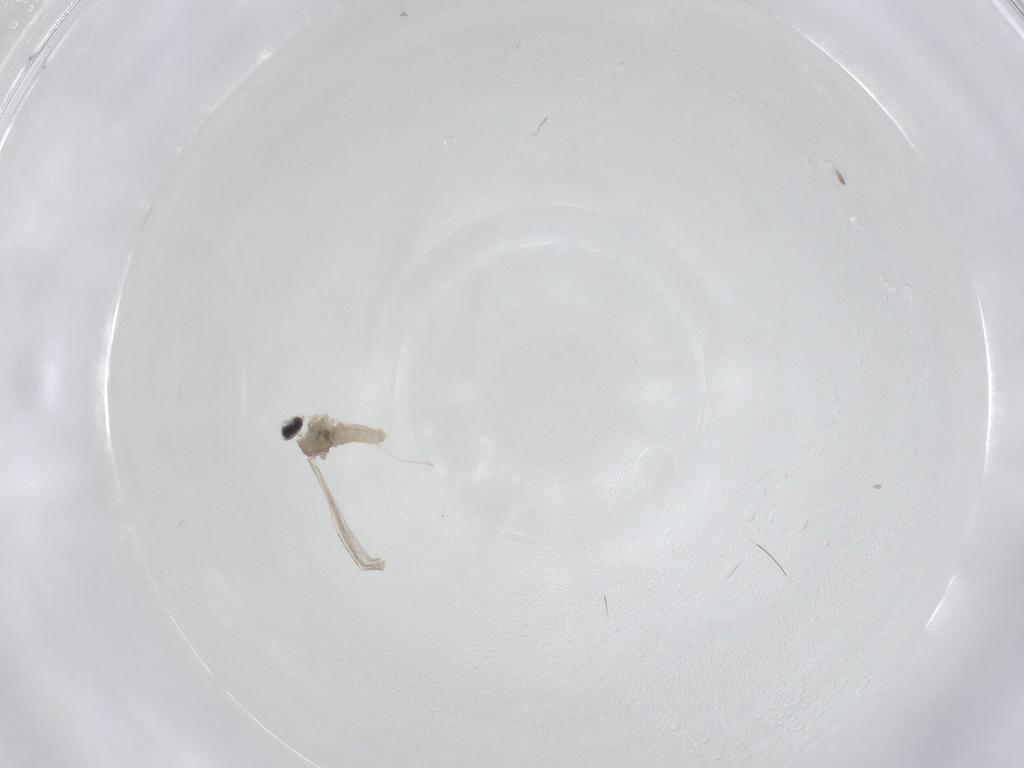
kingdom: Animalia
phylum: Arthropoda
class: Insecta
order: Diptera
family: Cecidomyiidae
